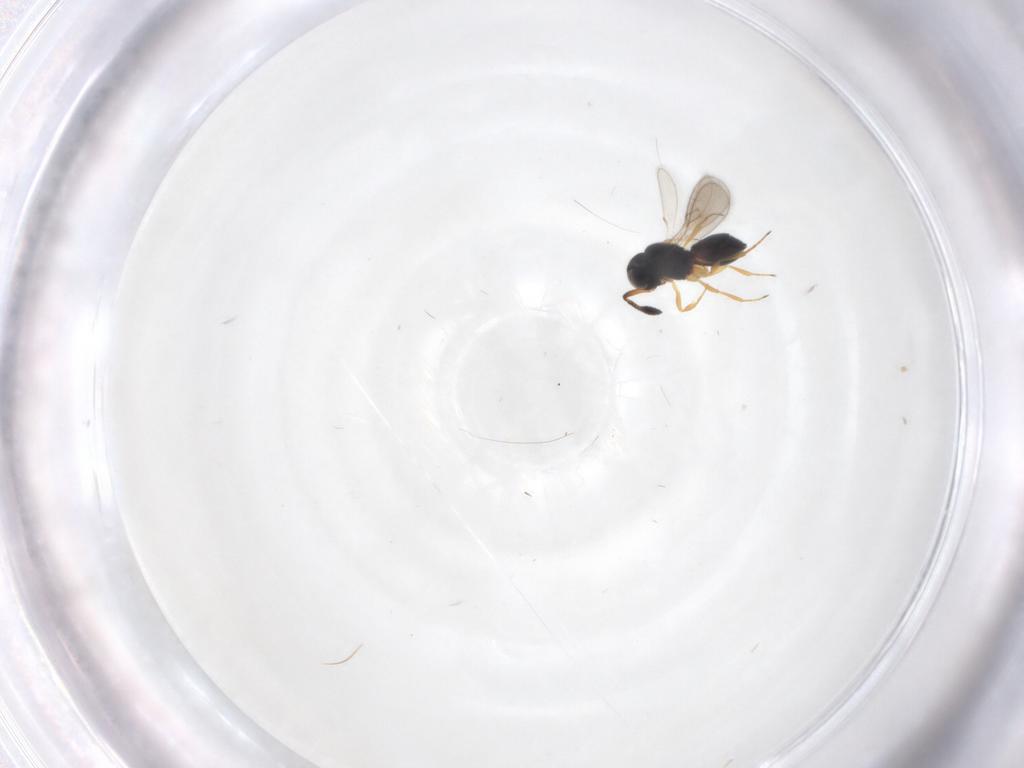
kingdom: Animalia
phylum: Arthropoda
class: Insecta
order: Hymenoptera
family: Scelionidae
